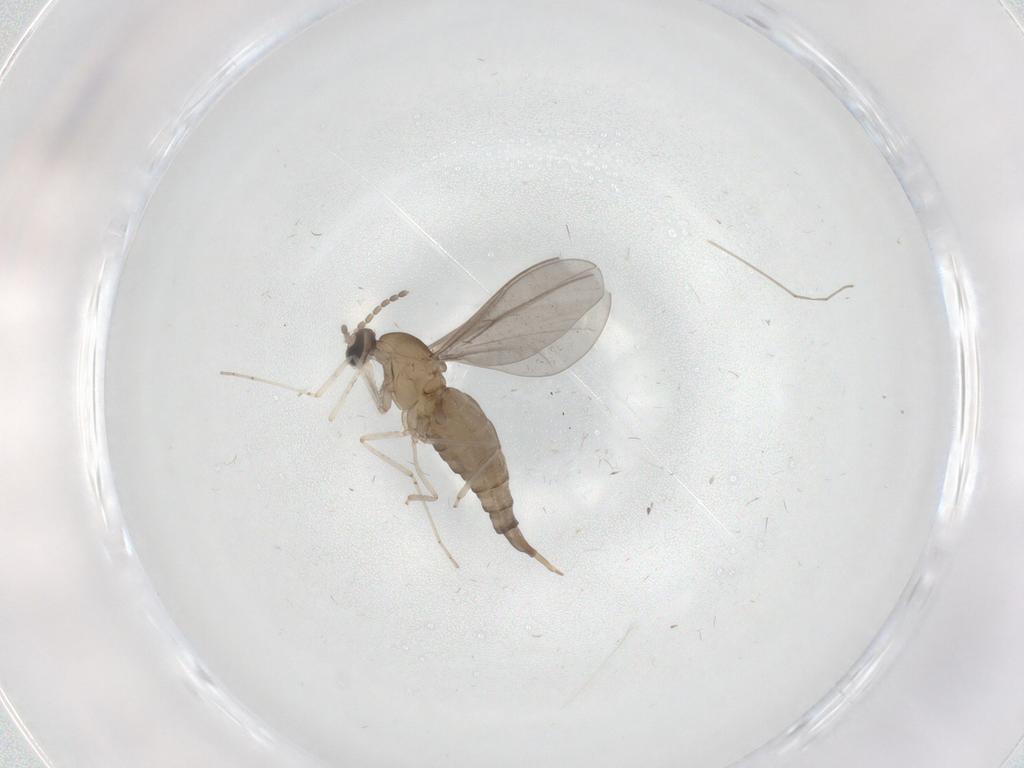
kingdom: Animalia
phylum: Arthropoda
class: Insecta
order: Diptera
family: Cecidomyiidae
